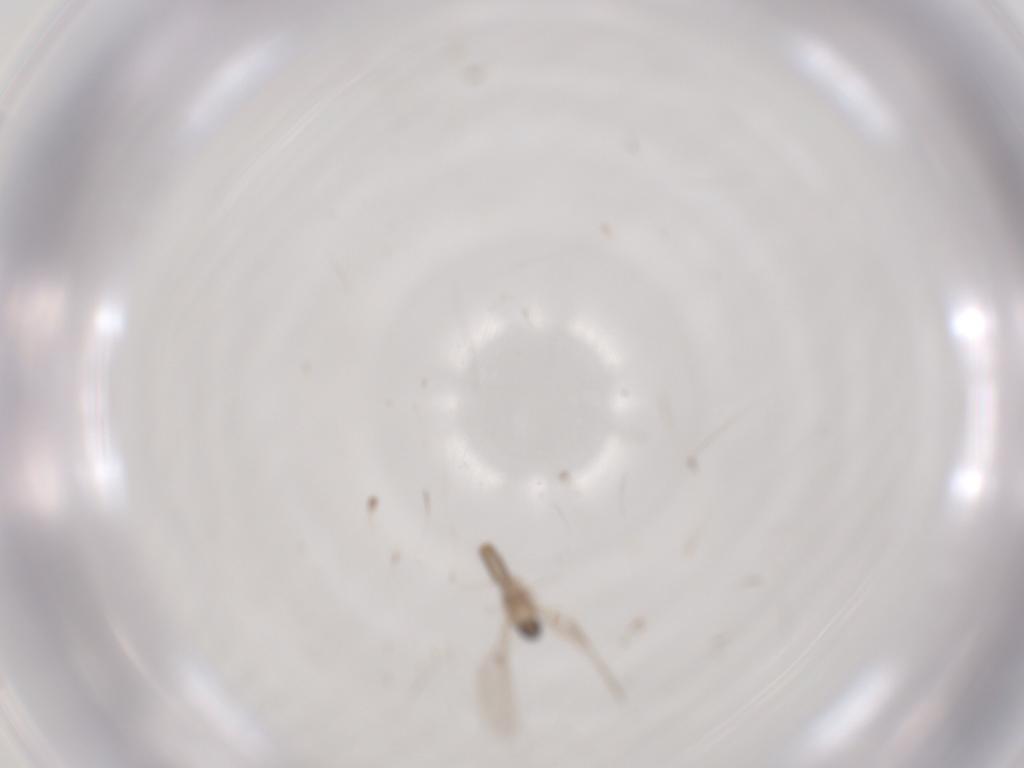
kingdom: Animalia
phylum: Arthropoda
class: Insecta
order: Diptera
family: Cecidomyiidae
